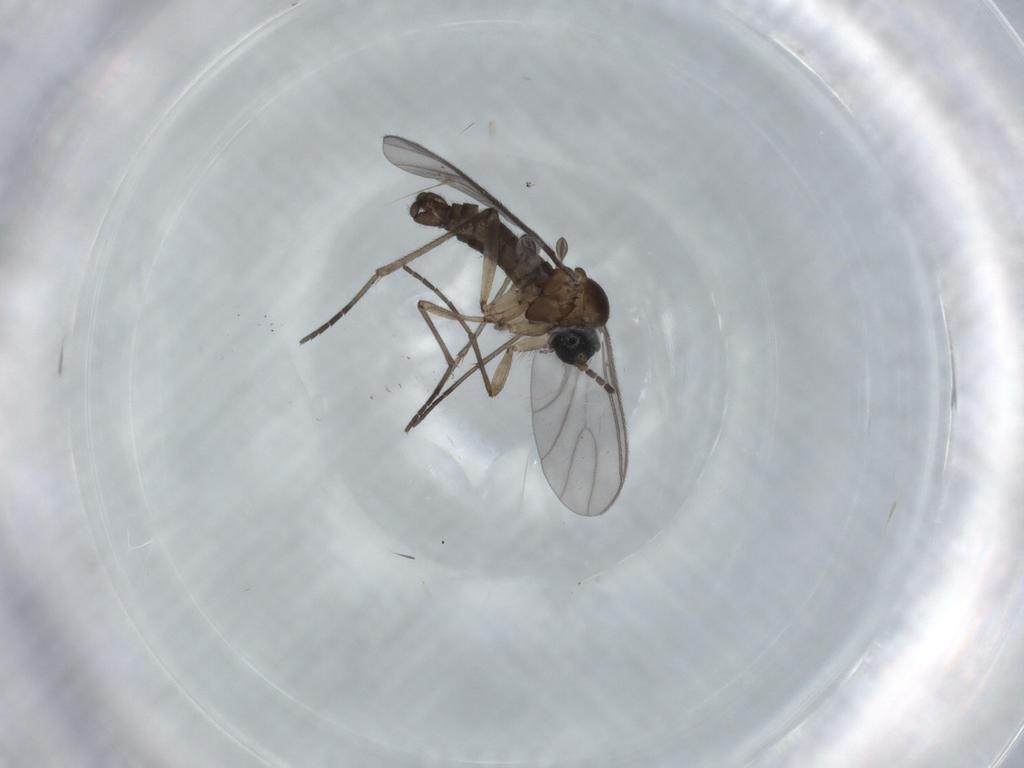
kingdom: Animalia
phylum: Arthropoda
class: Insecta
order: Diptera
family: Sciaridae
